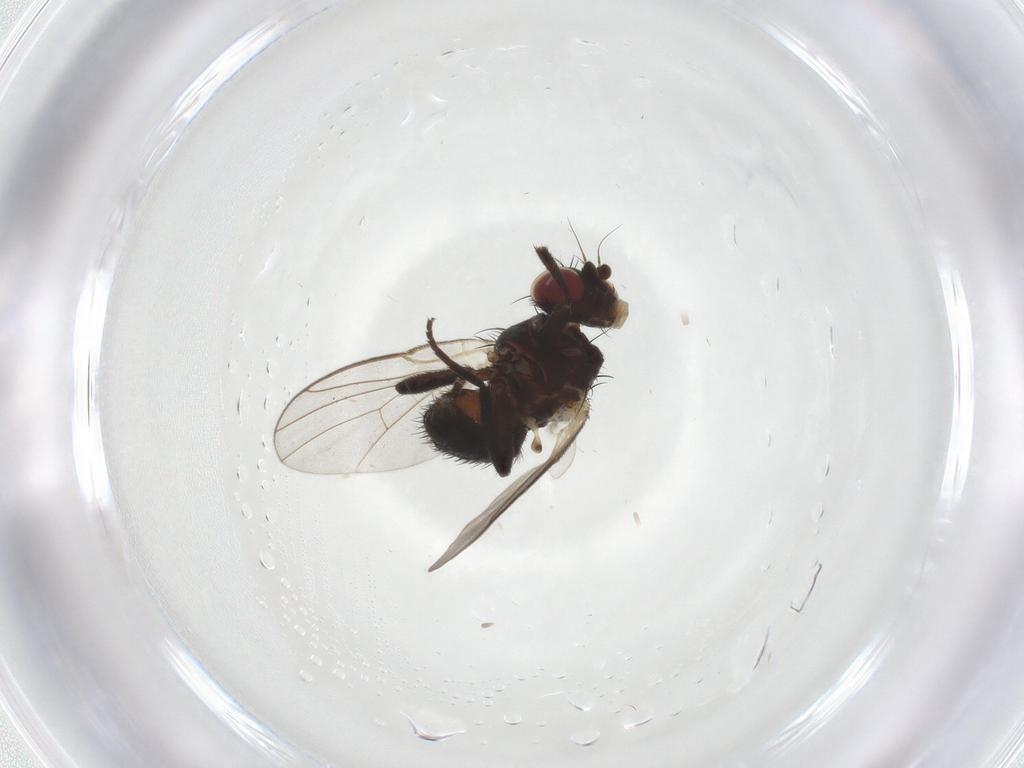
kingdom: Animalia
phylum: Arthropoda
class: Insecta
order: Diptera
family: Agromyzidae
